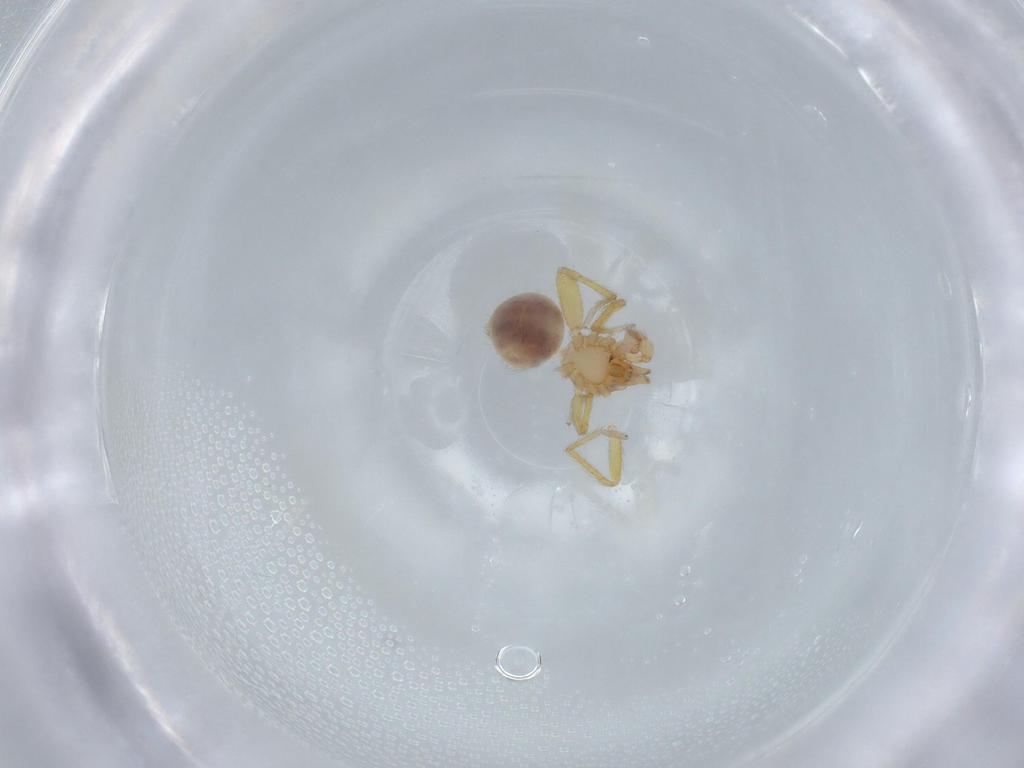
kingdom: Animalia
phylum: Arthropoda
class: Arachnida
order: Araneae
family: Oonopidae
